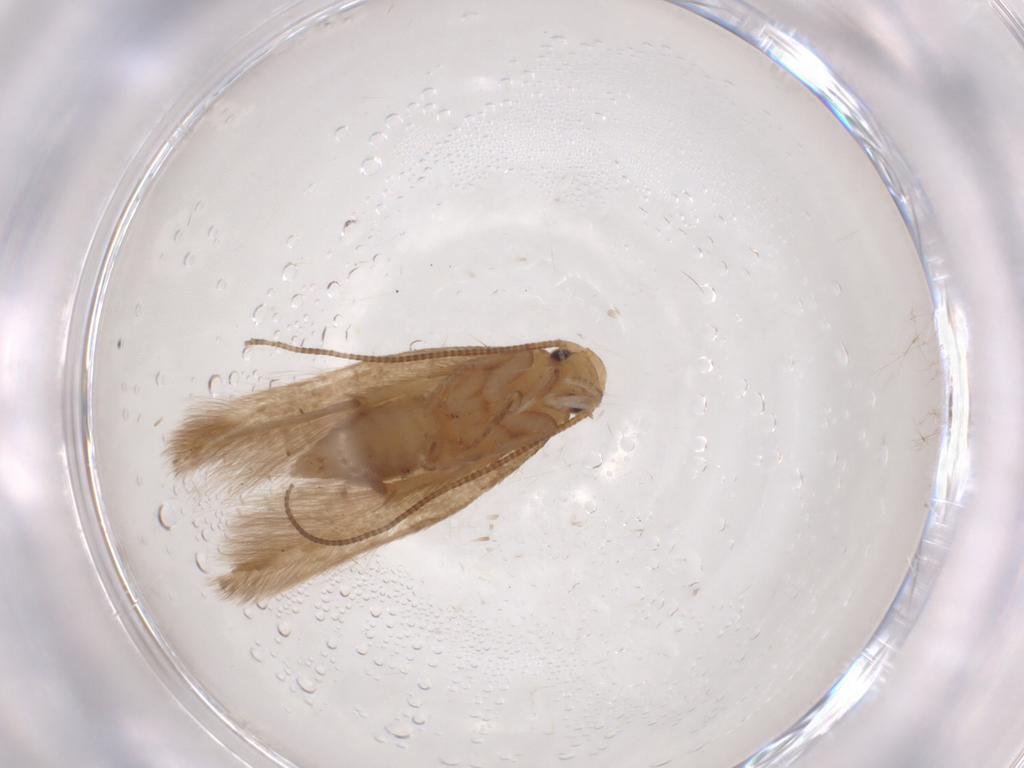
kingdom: Animalia
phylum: Arthropoda
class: Insecta
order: Lepidoptera
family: Tineidae
